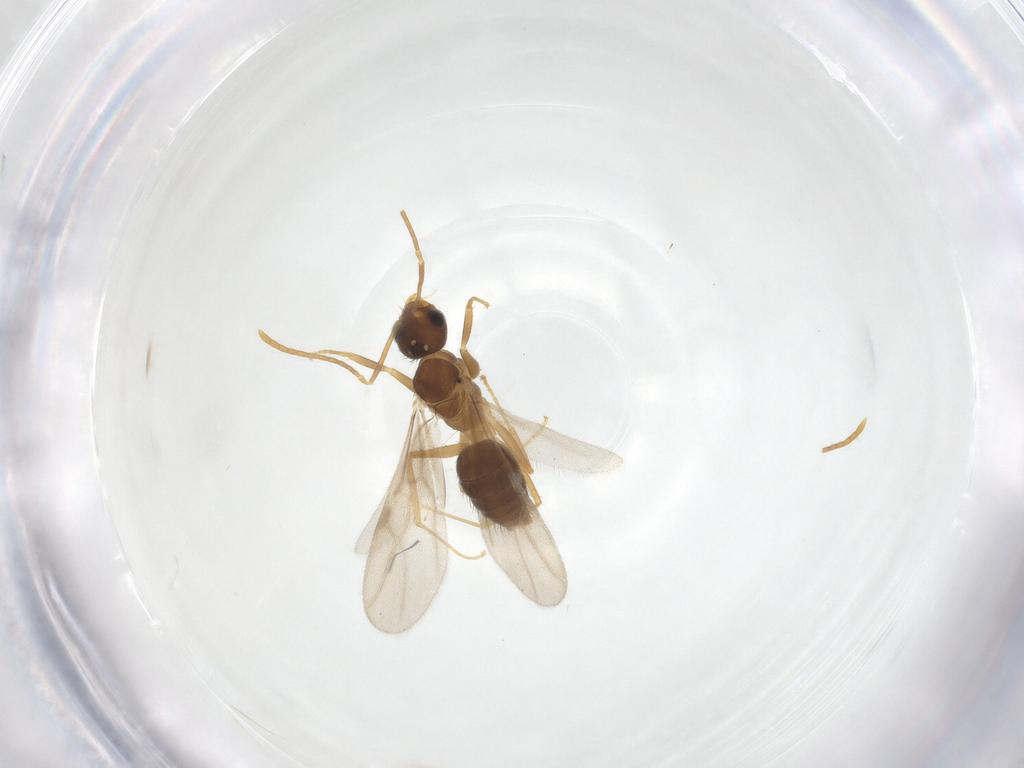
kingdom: Animalia
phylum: Arthropoda
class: Insecta
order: Hymenoptera
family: Formicidae
